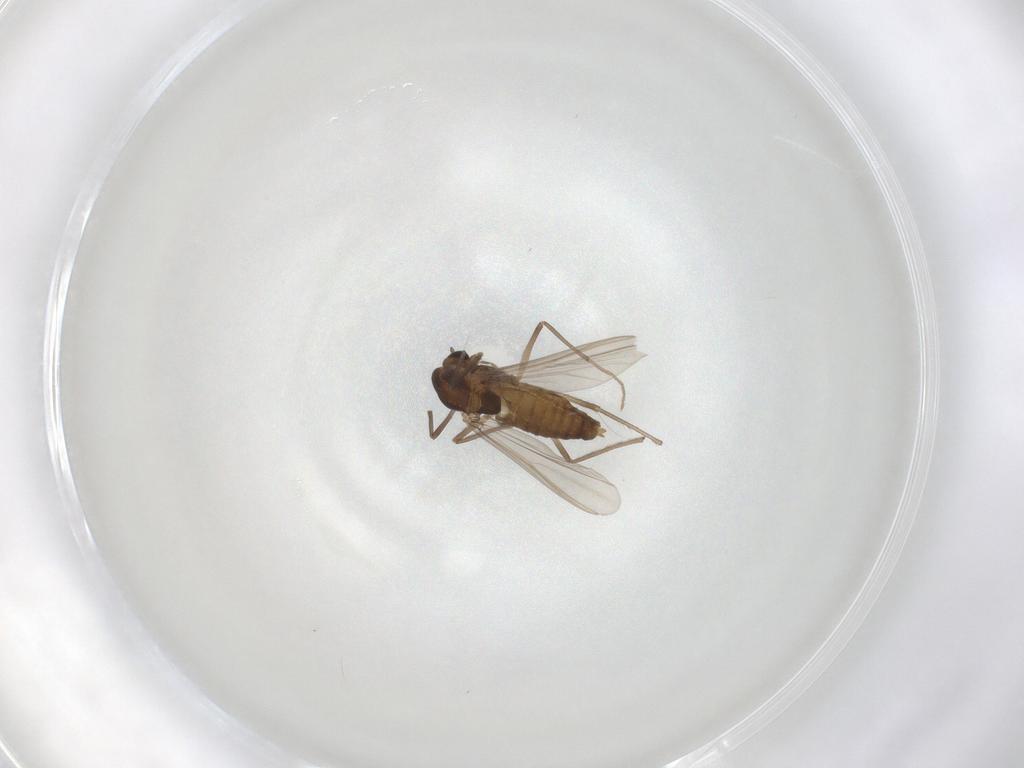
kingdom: Animalia
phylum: Arthropoda
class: Insecta
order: Diptera
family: Chironomidae
